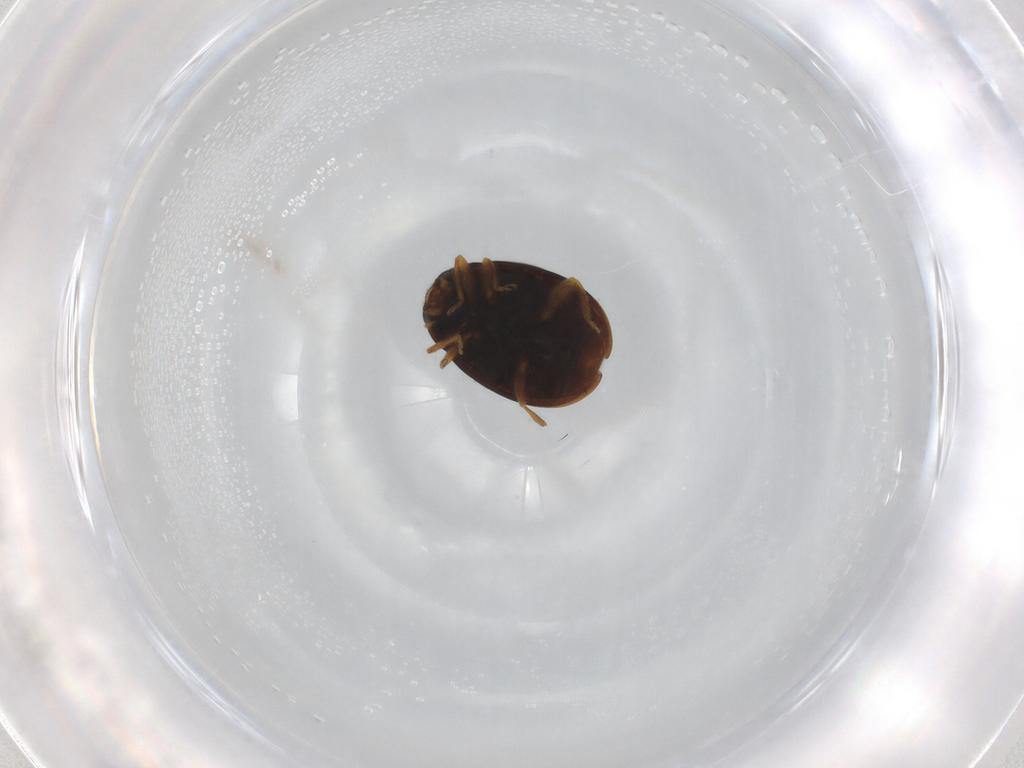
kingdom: Animalia
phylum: Arthropoda
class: Insecta
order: Coleoptera
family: Coccinellidae
